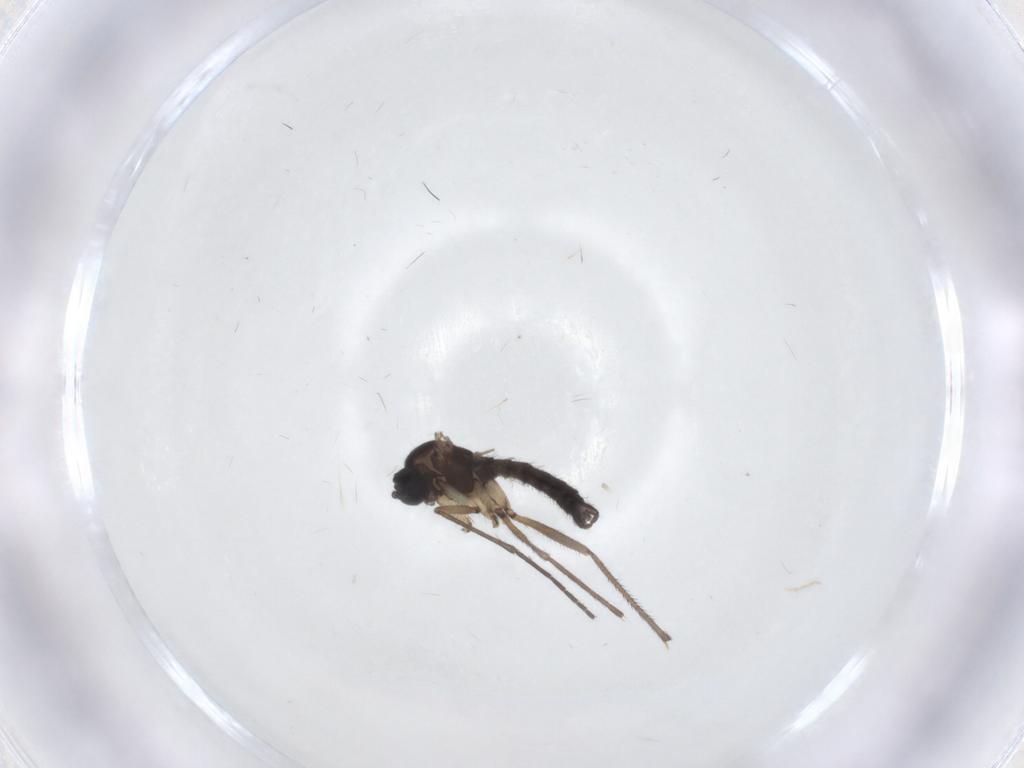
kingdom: Animalia
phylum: Arthropoda
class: Insecta
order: Diptera
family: Sciaridae
